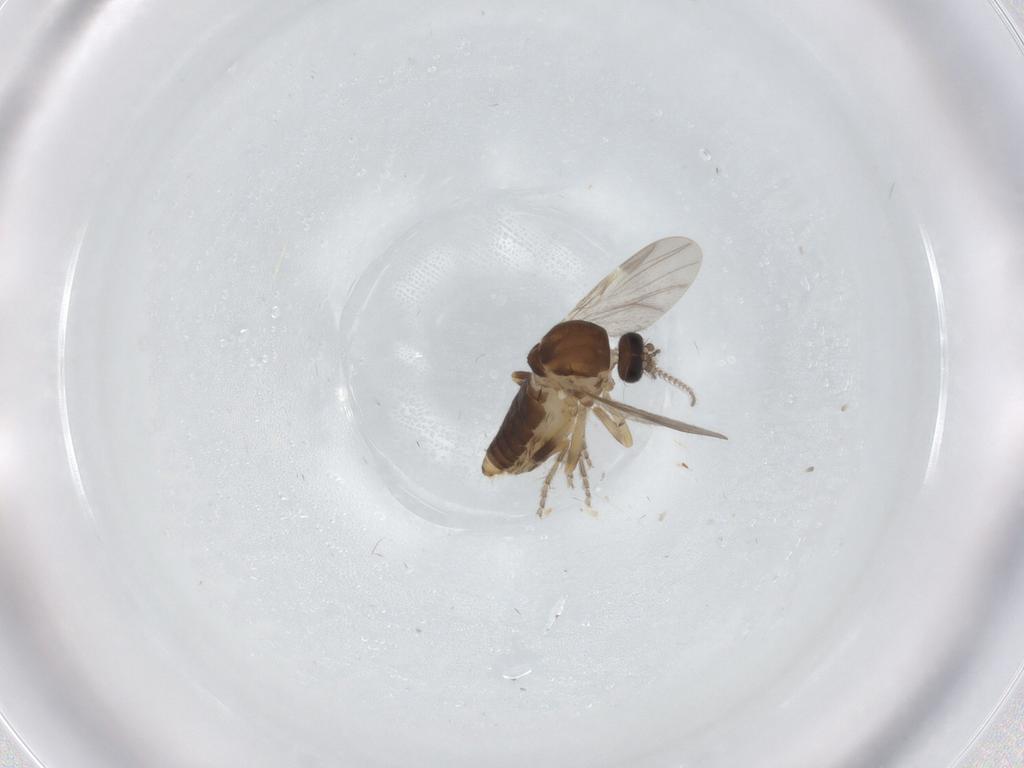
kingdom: Animalia
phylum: Arthropoda
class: Insecta
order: Diptera
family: Ceratopogonidae
